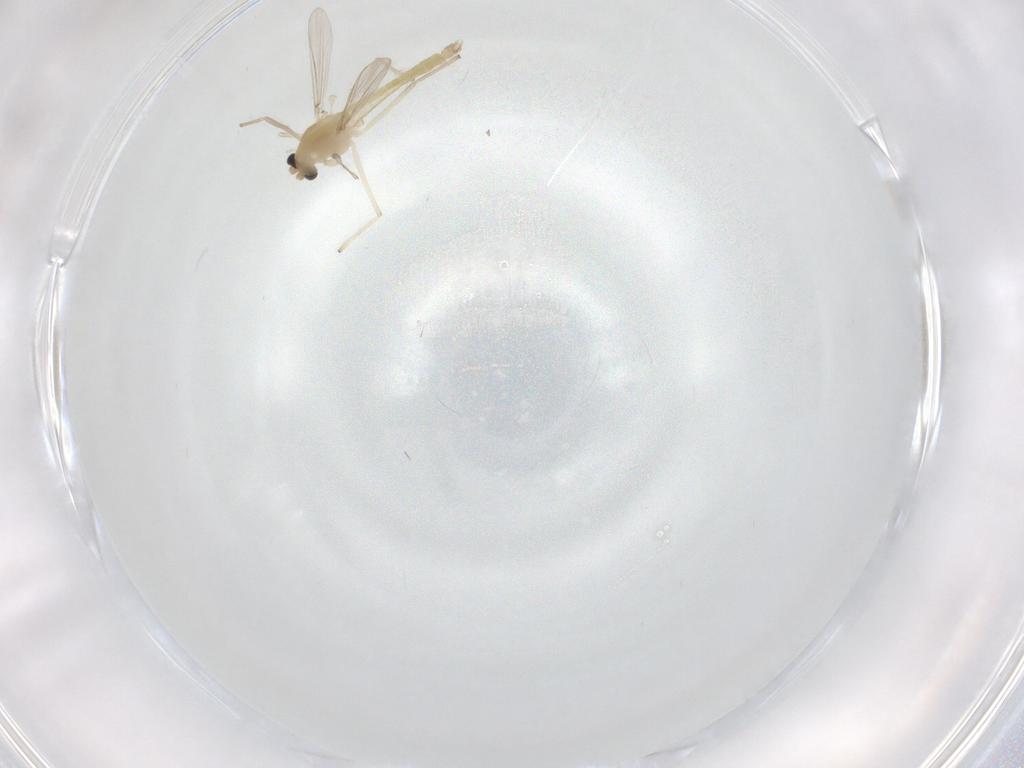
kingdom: Animalia
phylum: Arthropoda
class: Insecta
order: Diptera
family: Chironomidae
